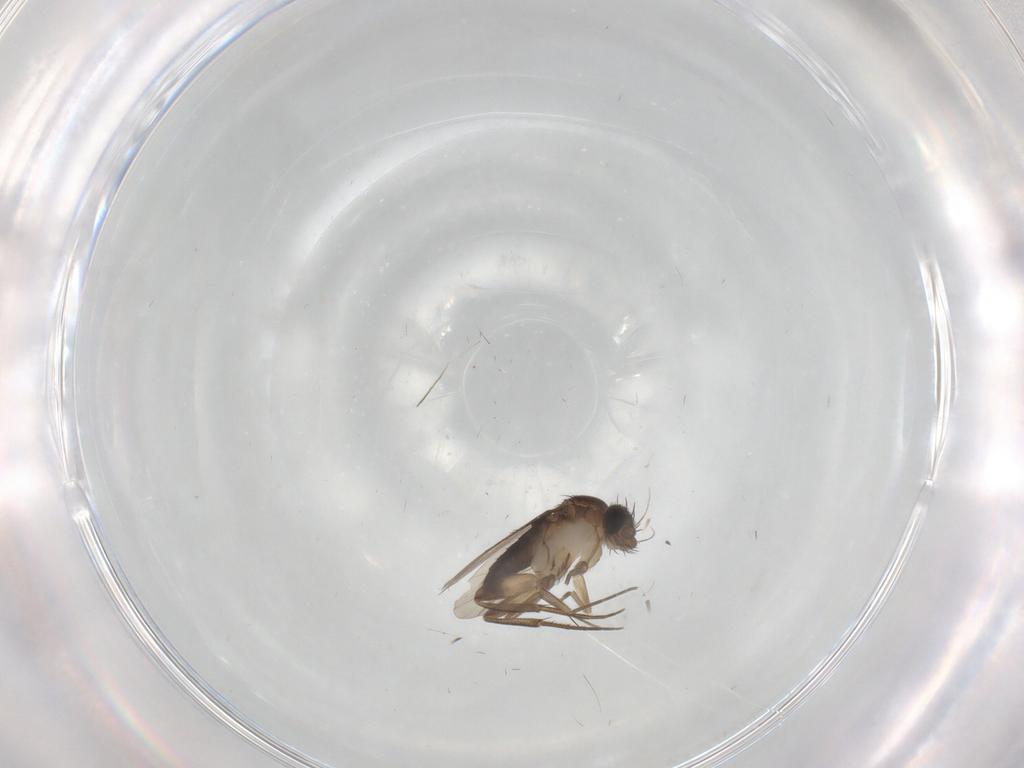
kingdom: Animalia
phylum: Arthropoda
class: Insecta
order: Diptera
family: Phoridae
